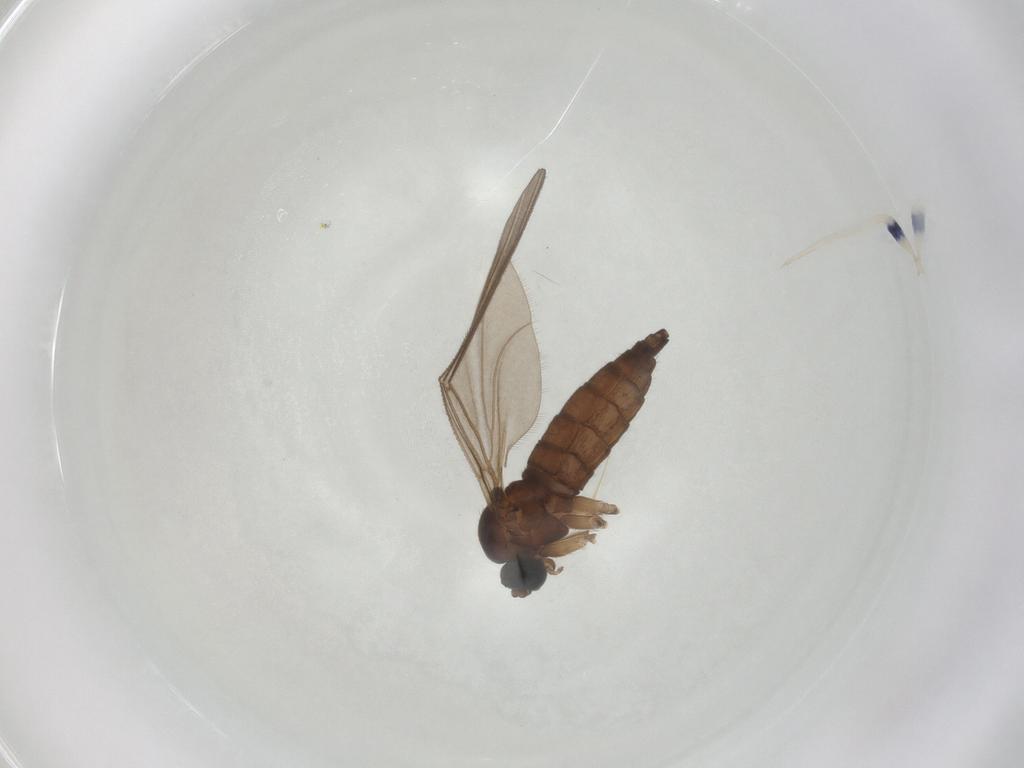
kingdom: Animalia
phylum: Arthropoda
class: Insecta
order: Diptera
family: Sciaridae
